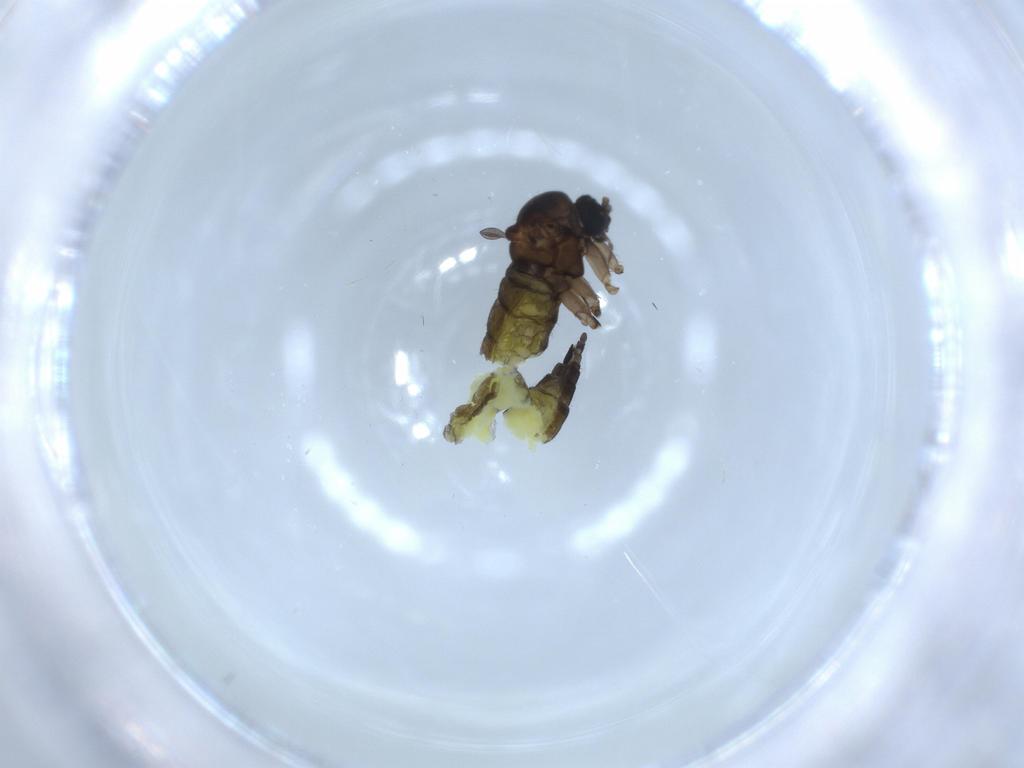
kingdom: Animalia
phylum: Arthropoda
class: Insecta
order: Diptera
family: Sciaridae
